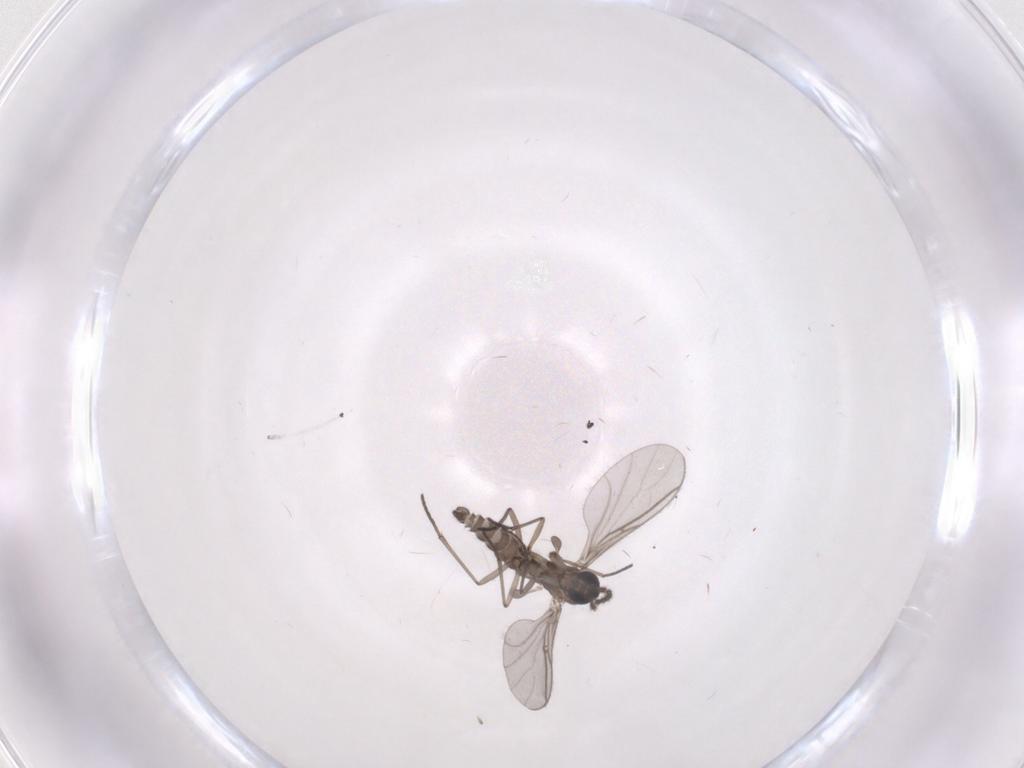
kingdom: Animalia
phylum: Arthropoda
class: Insecta
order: Diptera
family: Sciaridae
